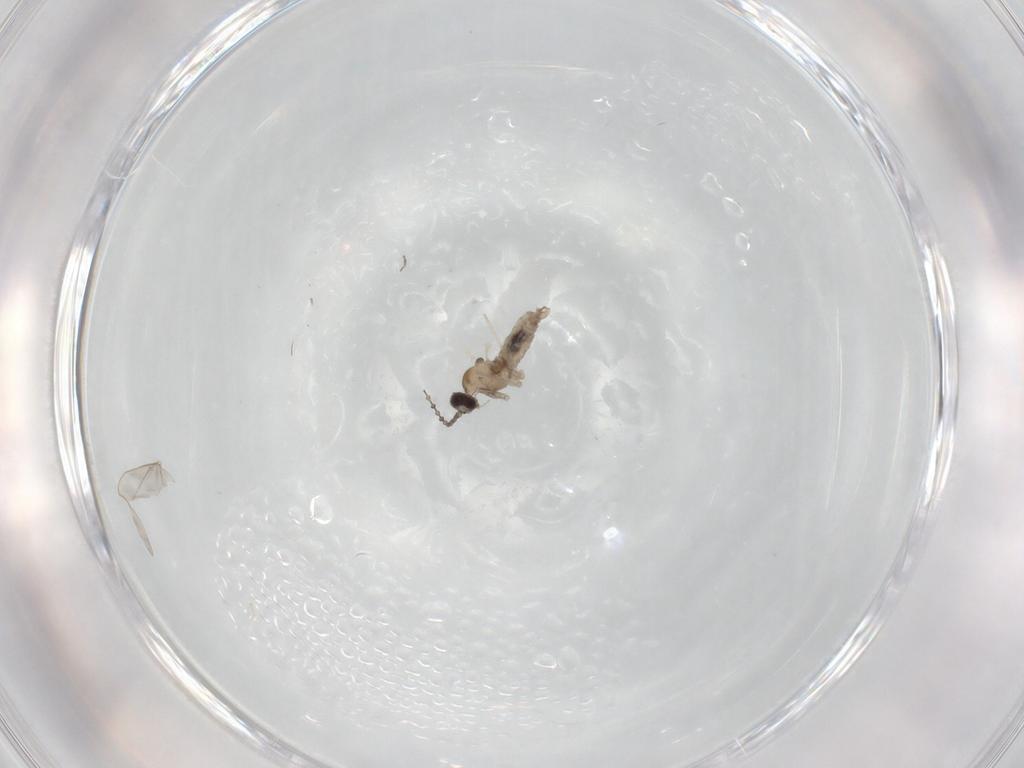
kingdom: Animalia
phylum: Arthropoda
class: Insecta
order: Diptera
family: Cecidomyiidae
